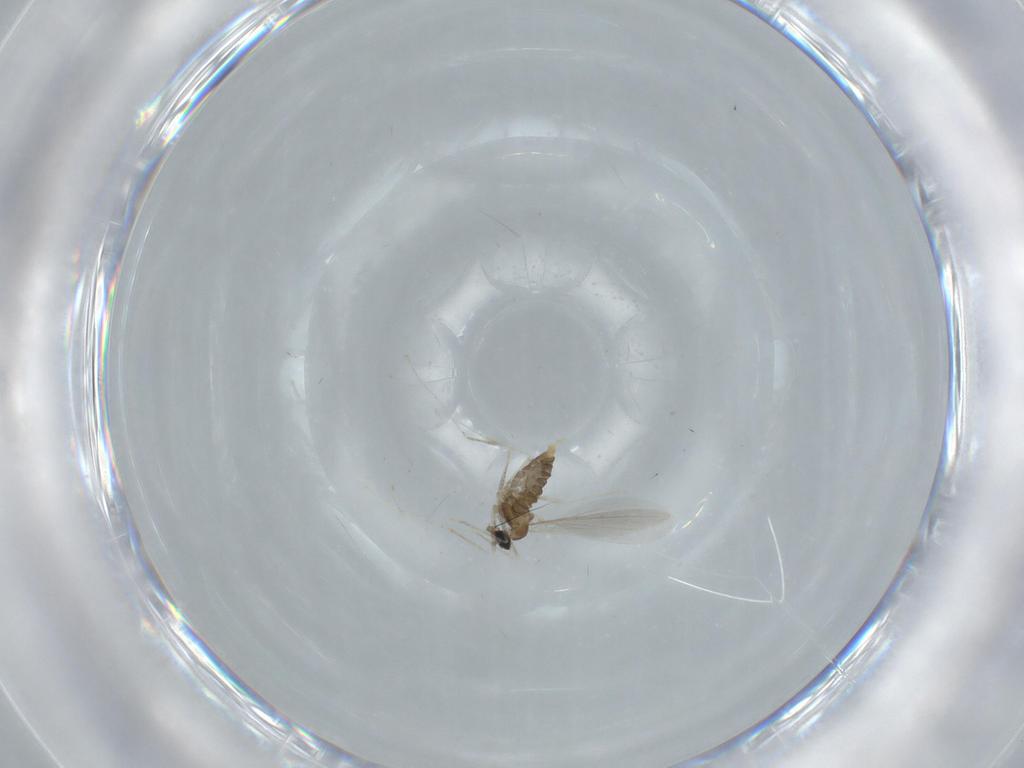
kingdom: Animalia
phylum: Arthropoda
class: Insecta
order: Diptera
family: Cecidomyiidae
